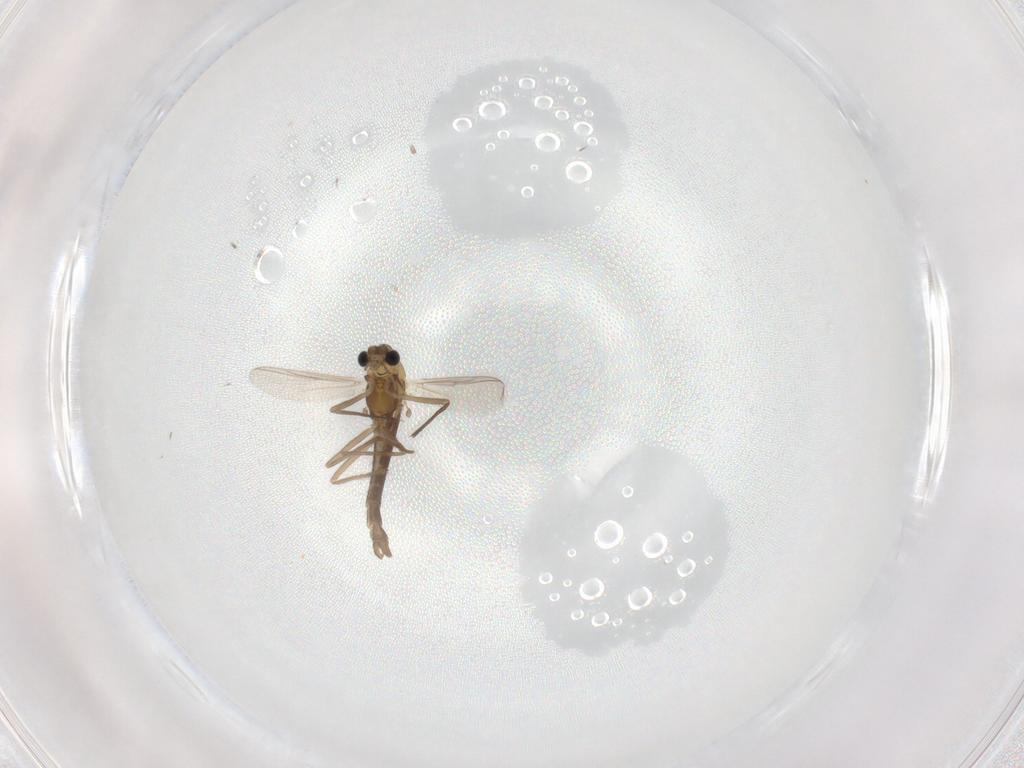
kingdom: Animalia
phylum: Arthropoda
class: Insecta
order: Diptera
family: Chironomidae
